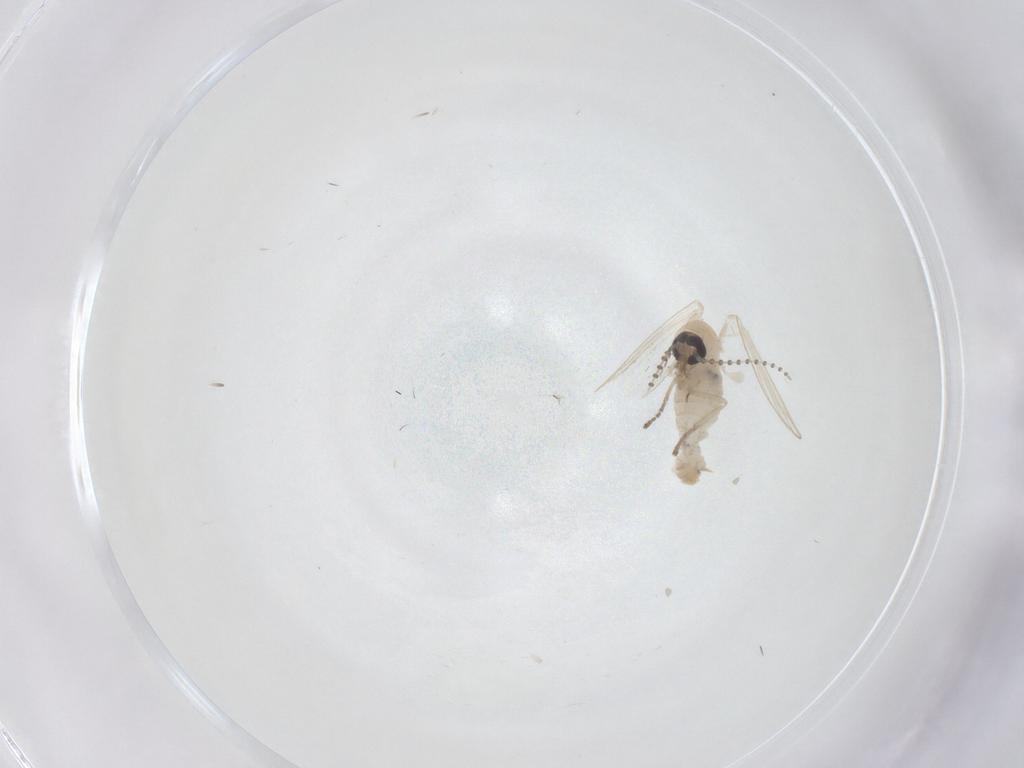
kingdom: Animalia
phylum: Arthropoda
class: Insecta
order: Diptera
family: Psychodidae
